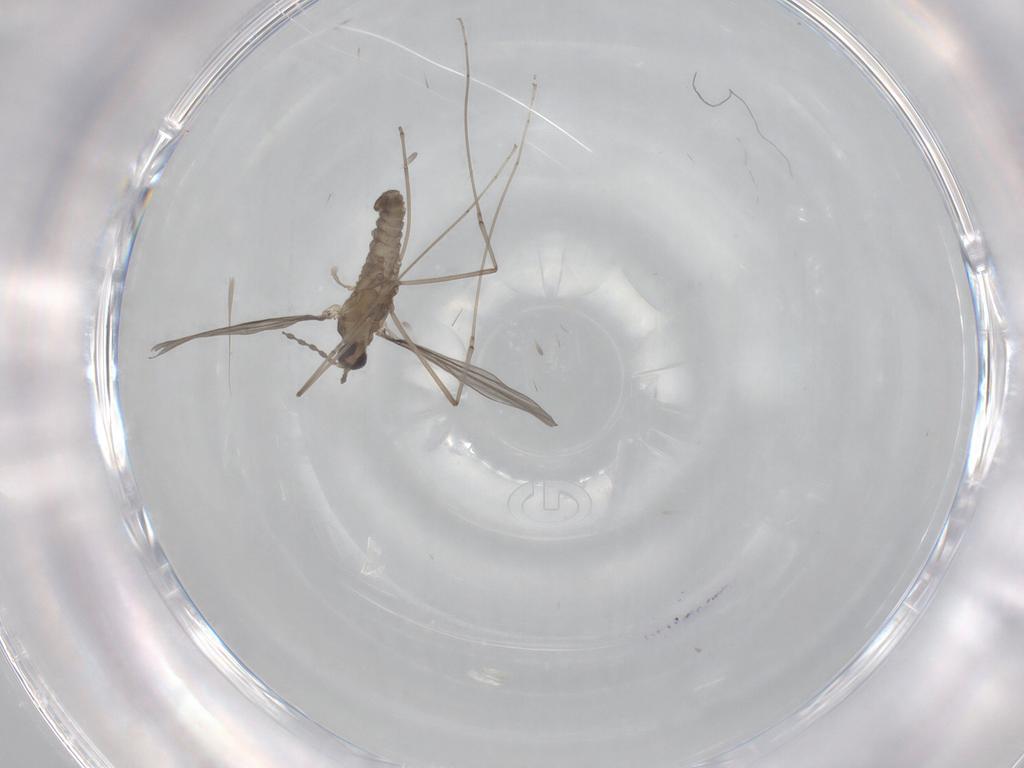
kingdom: Animalia
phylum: Arthropoda
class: Insecta
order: Diptera
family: Cecidomyiidae
